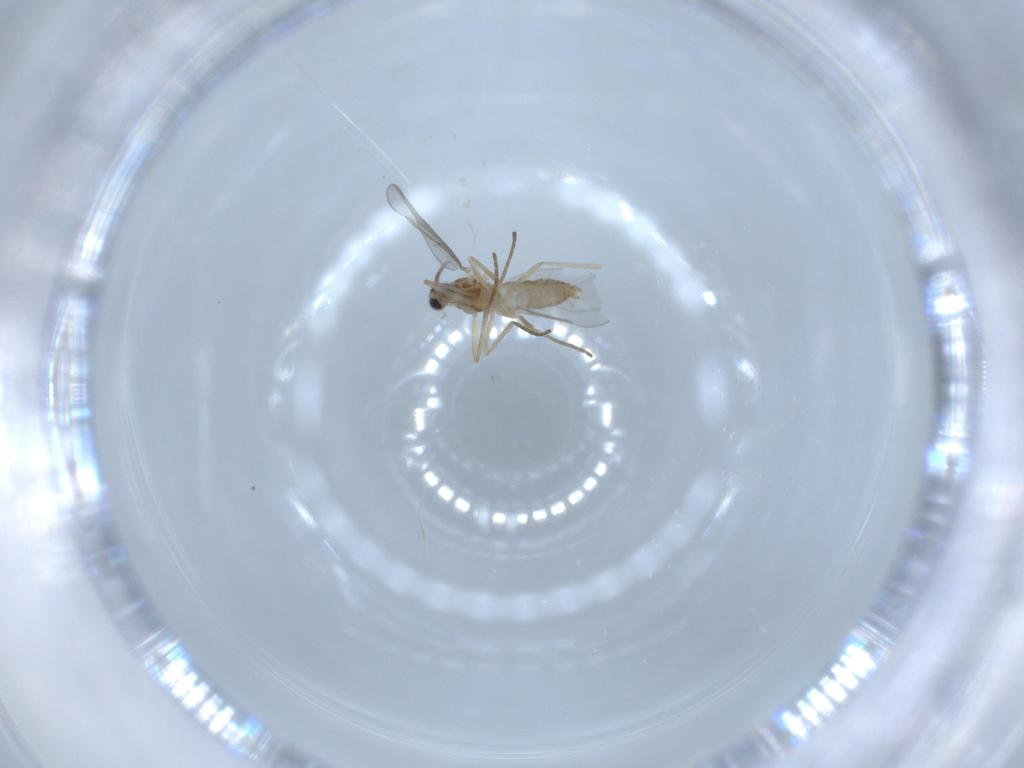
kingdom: Animalia
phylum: Arthropoda
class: Insecta
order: Diptera
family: Cecidomyiidae
